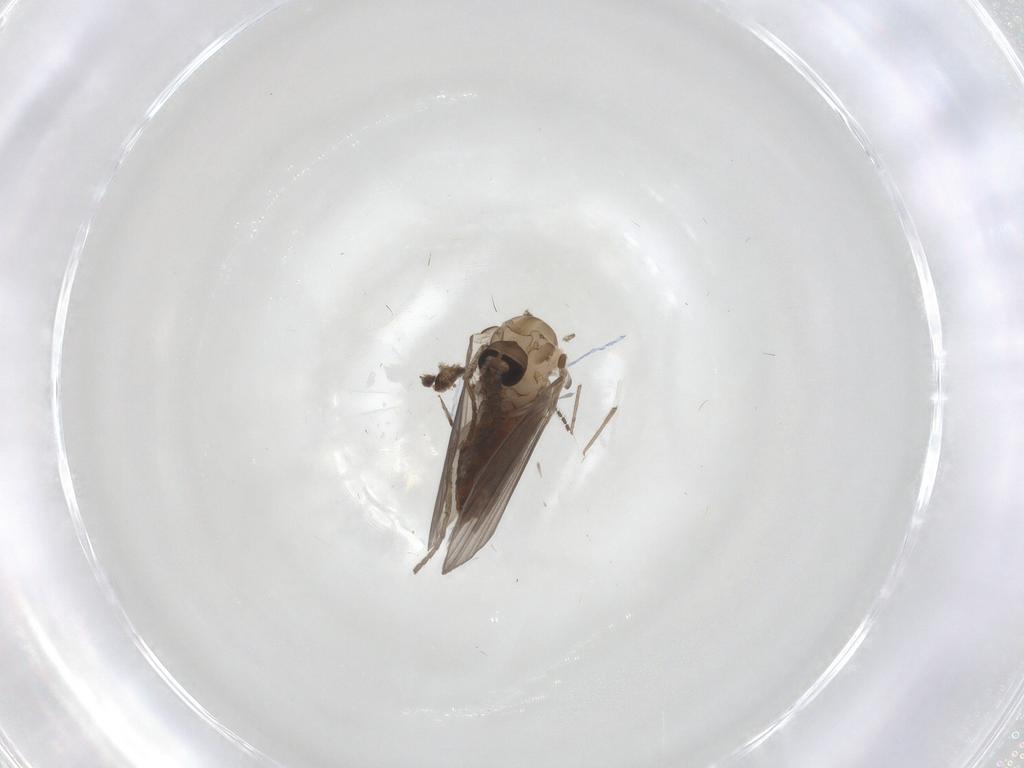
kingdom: Animalia
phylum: Arthropoda
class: Insecta
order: Diptera
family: Psychodidae
